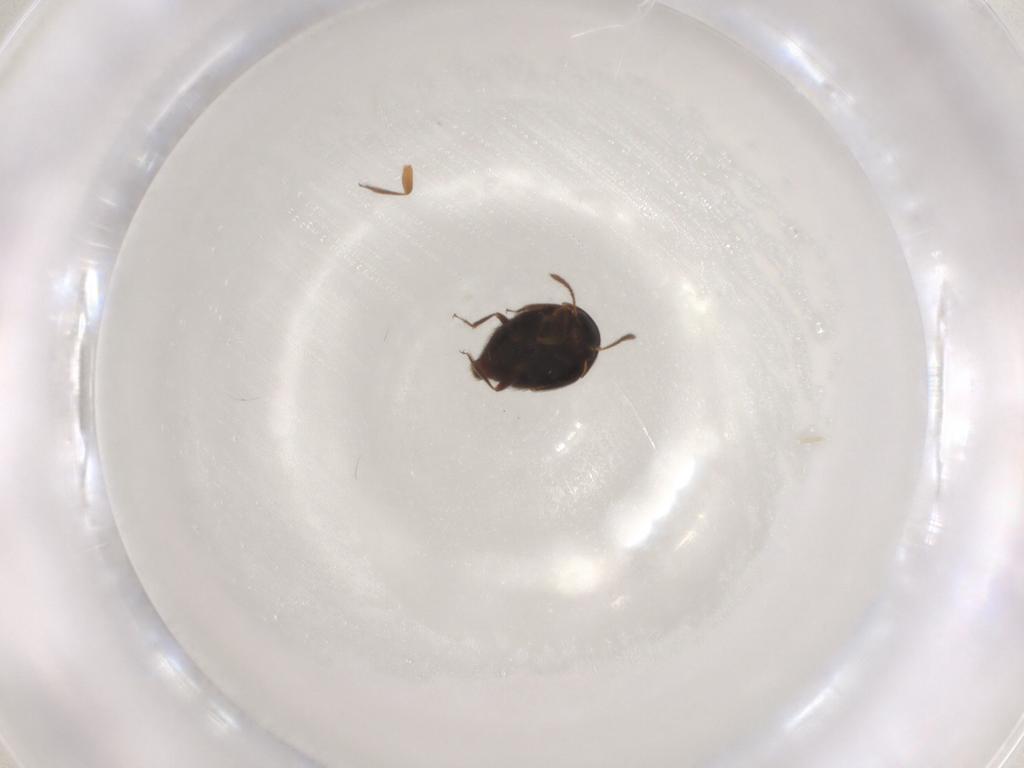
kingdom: Animalia
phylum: Arthropoda
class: Insecta
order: Coleoptera
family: Staphylinidae
